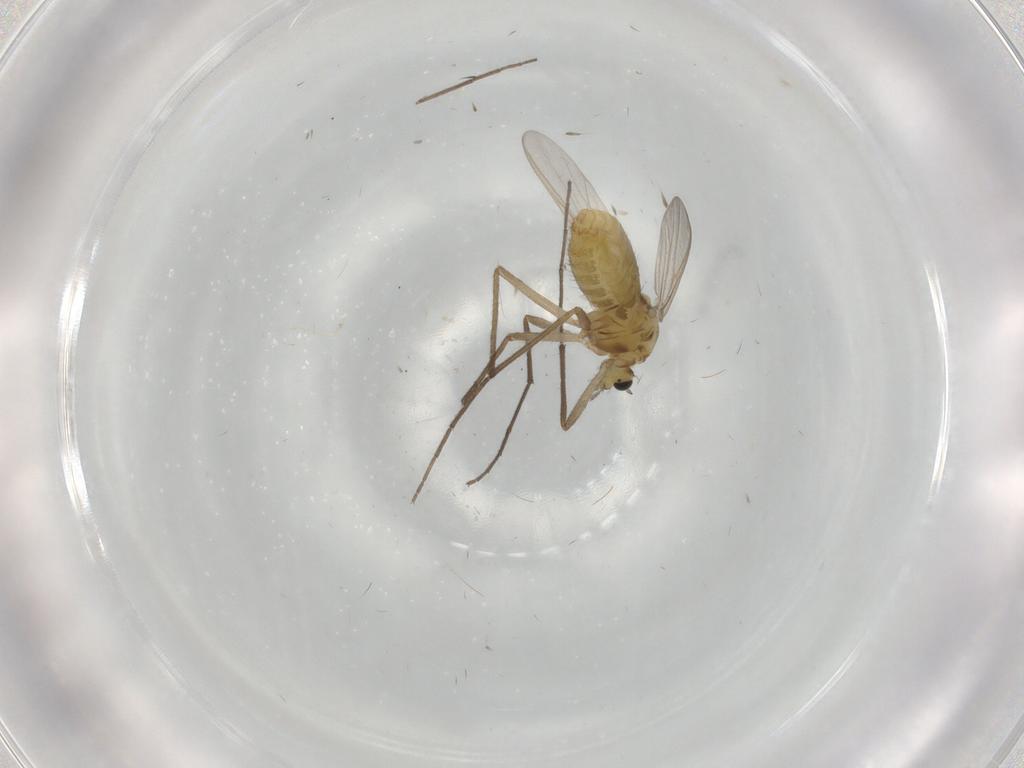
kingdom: Animalia
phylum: Arthropoda
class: Insecta
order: Diptera
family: Chironomidae
